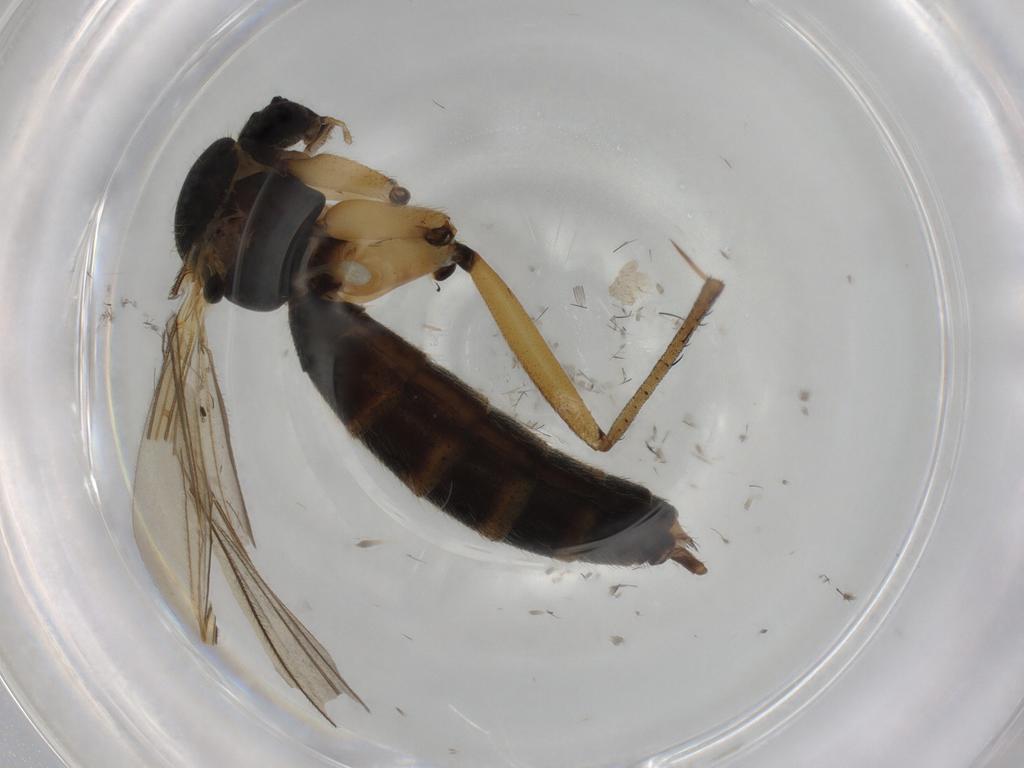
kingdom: Animalia
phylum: Arthropoda
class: Insecta
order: Diptera
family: Mycetophilidae
